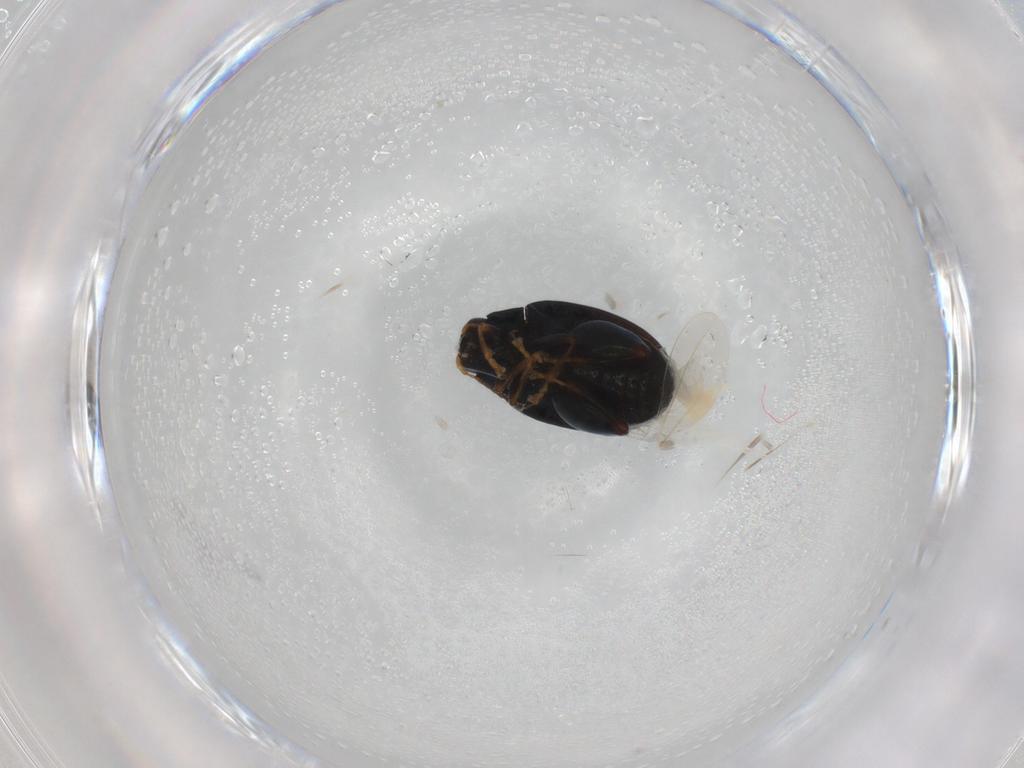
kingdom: Animalia
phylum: Arthropoda
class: Insecta
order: Coleoptera
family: Chrysomelidae
